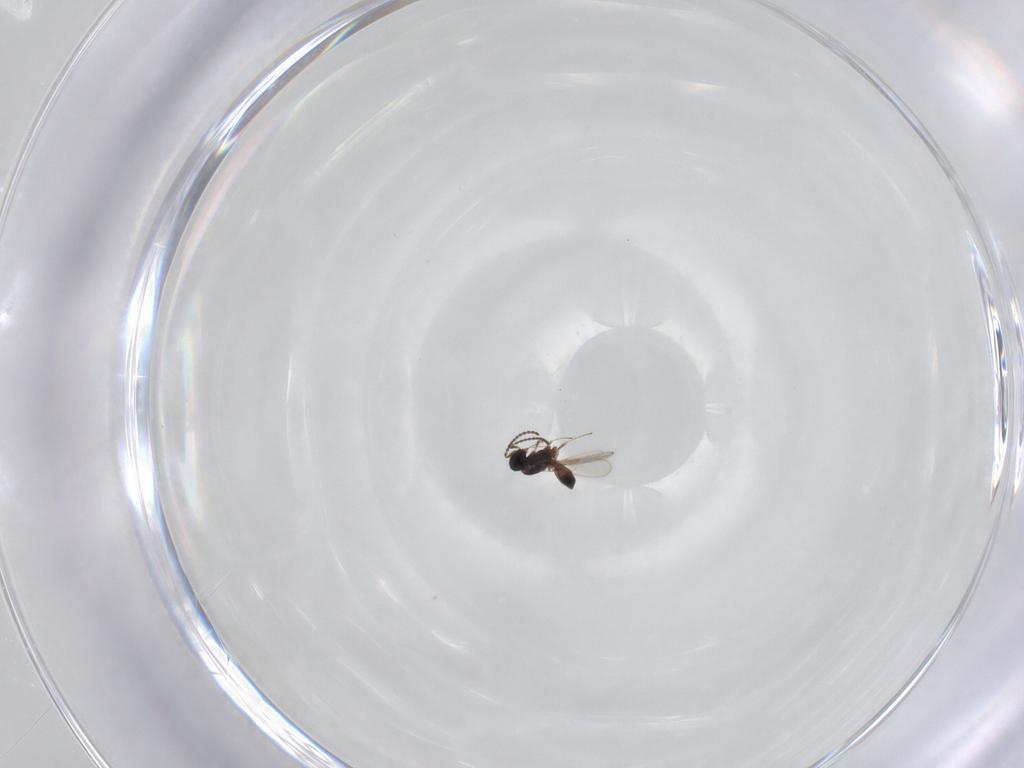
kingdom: Animalia
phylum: Arthropoda
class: Insecta
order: Hymenoptera
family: Scelionidae
